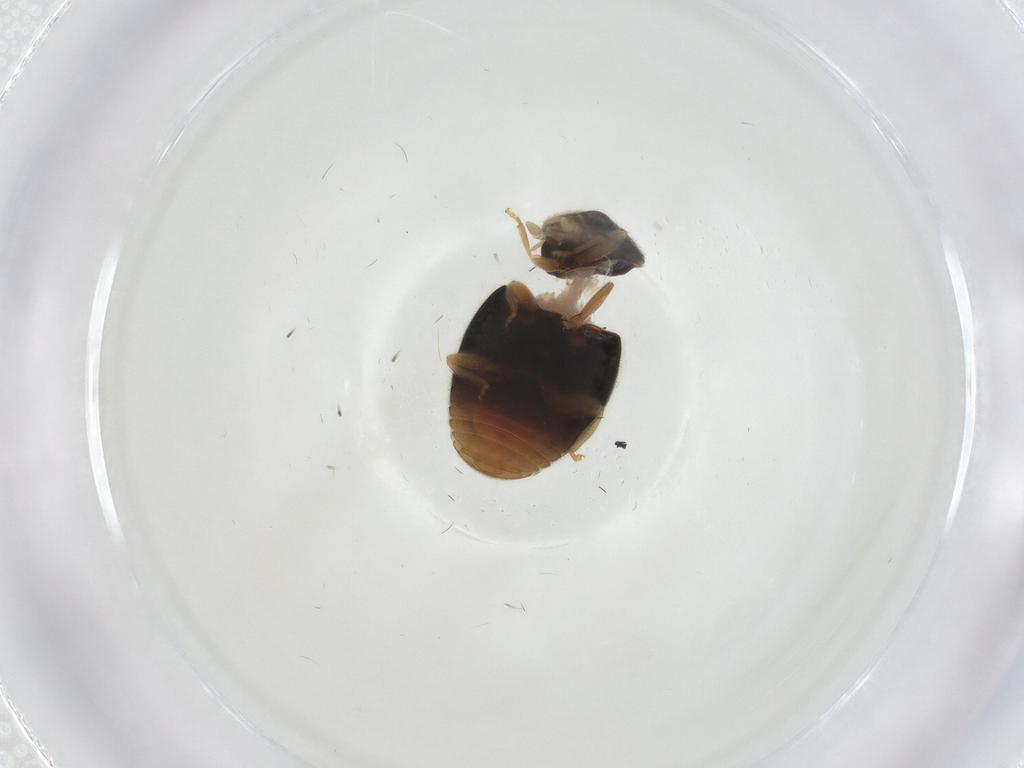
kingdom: Animalia
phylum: Arthropoda
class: Insecta
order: Coleoptera
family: Coccinellidae
